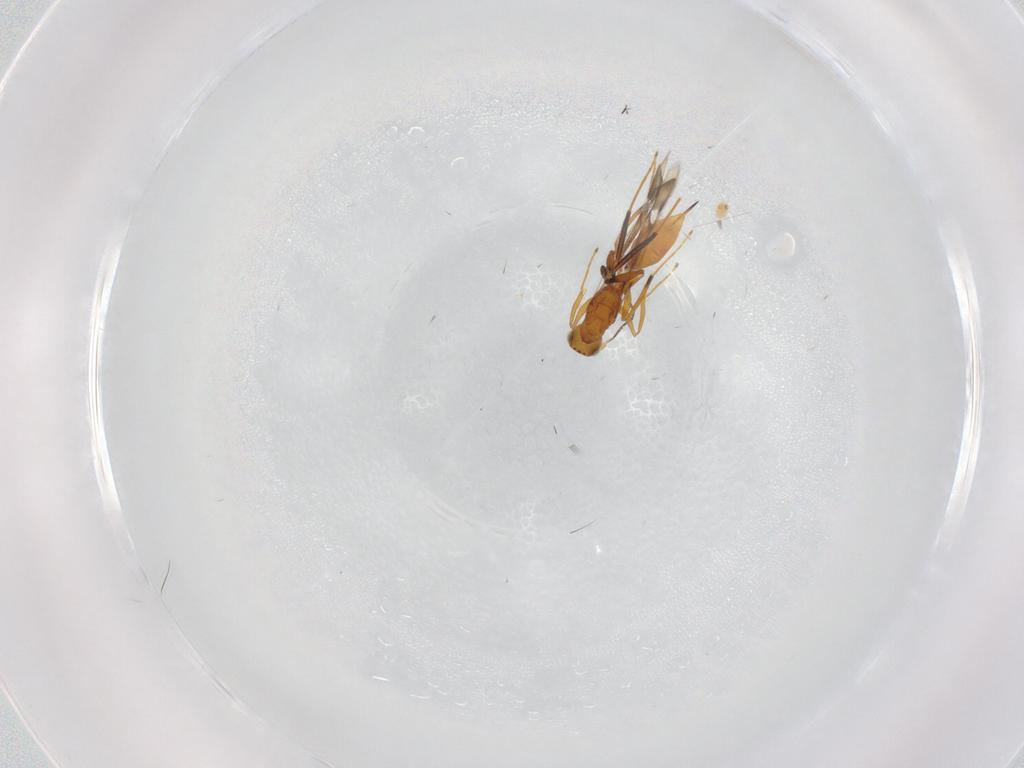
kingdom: Animalia
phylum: Arthropoda
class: Insecta
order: Hymenoptera
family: Mymaridae
